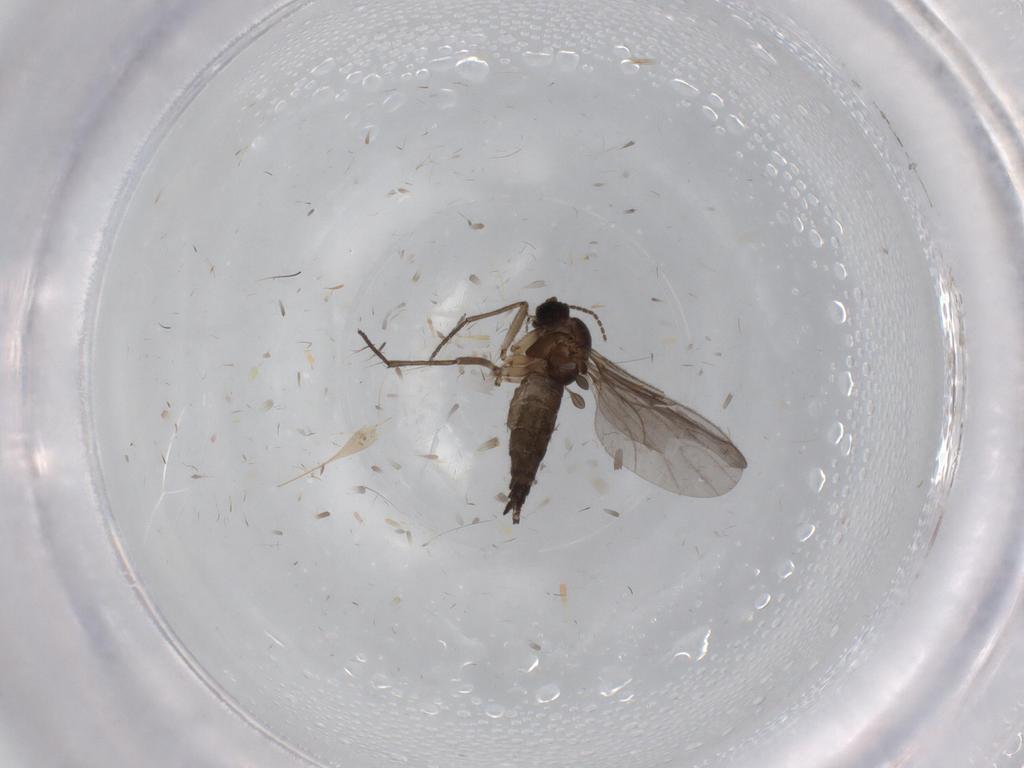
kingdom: Animalia
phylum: Arthropoda
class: Insecta
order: Diptera
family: Sciaridae
